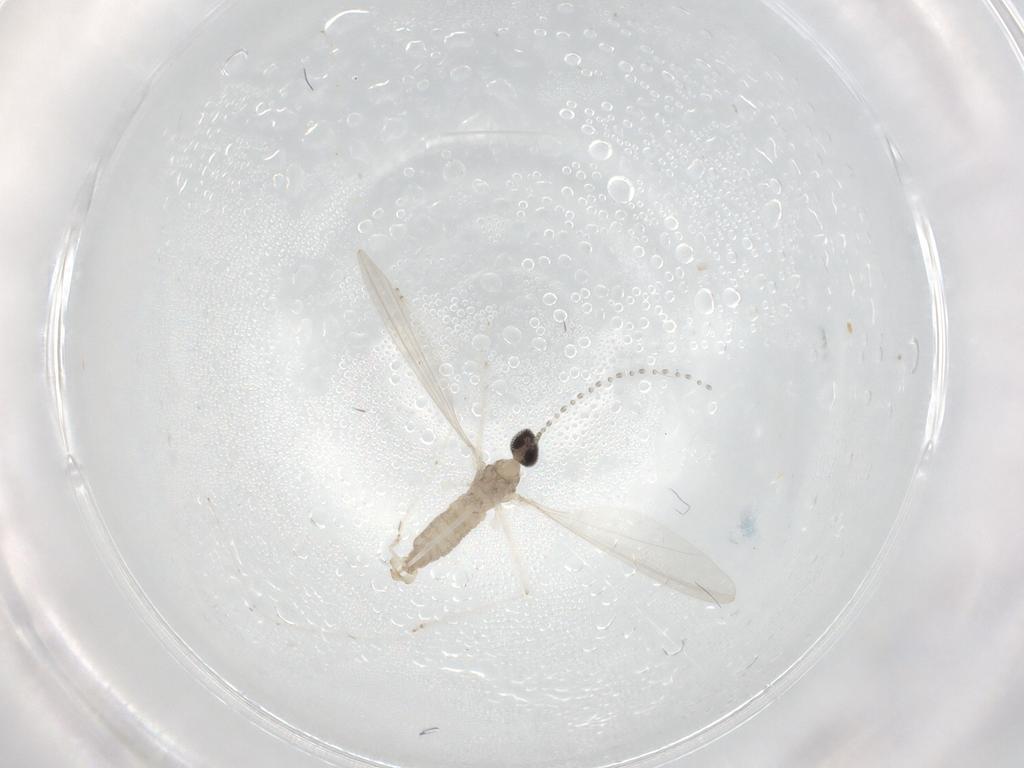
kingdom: Animalia
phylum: Arthropoda
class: Insecta
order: Diptera
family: Cecidomyiidae
